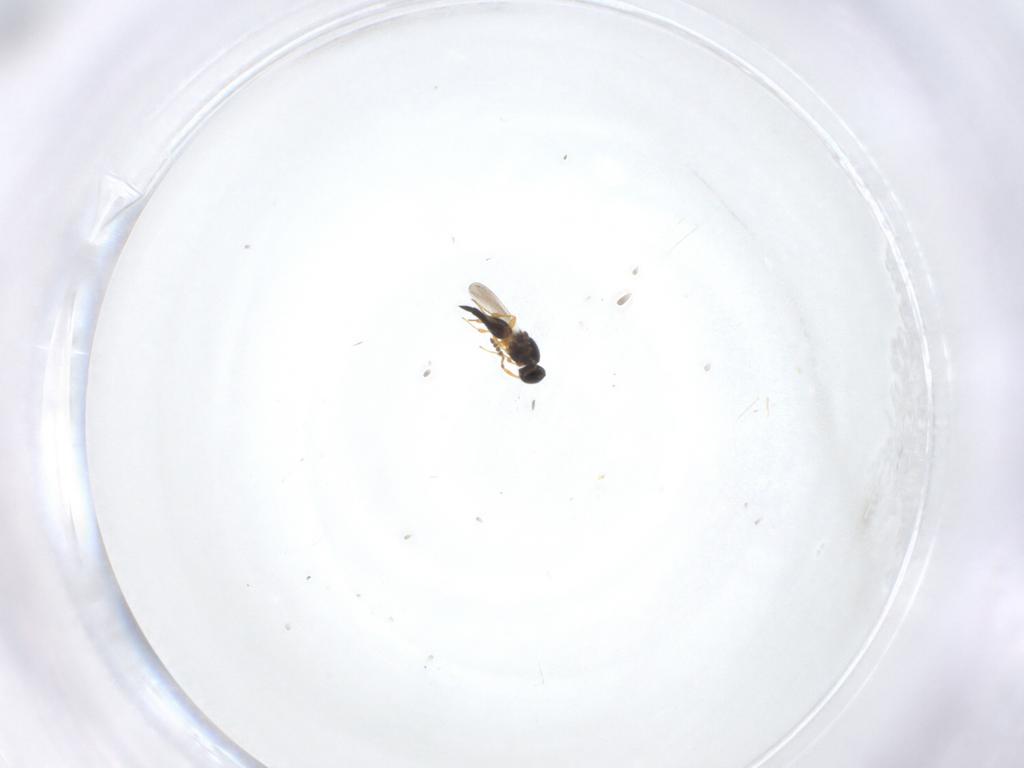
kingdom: Animalia
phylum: Arthropoda
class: Insecta
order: Hymenoptera
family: Platygastridae
